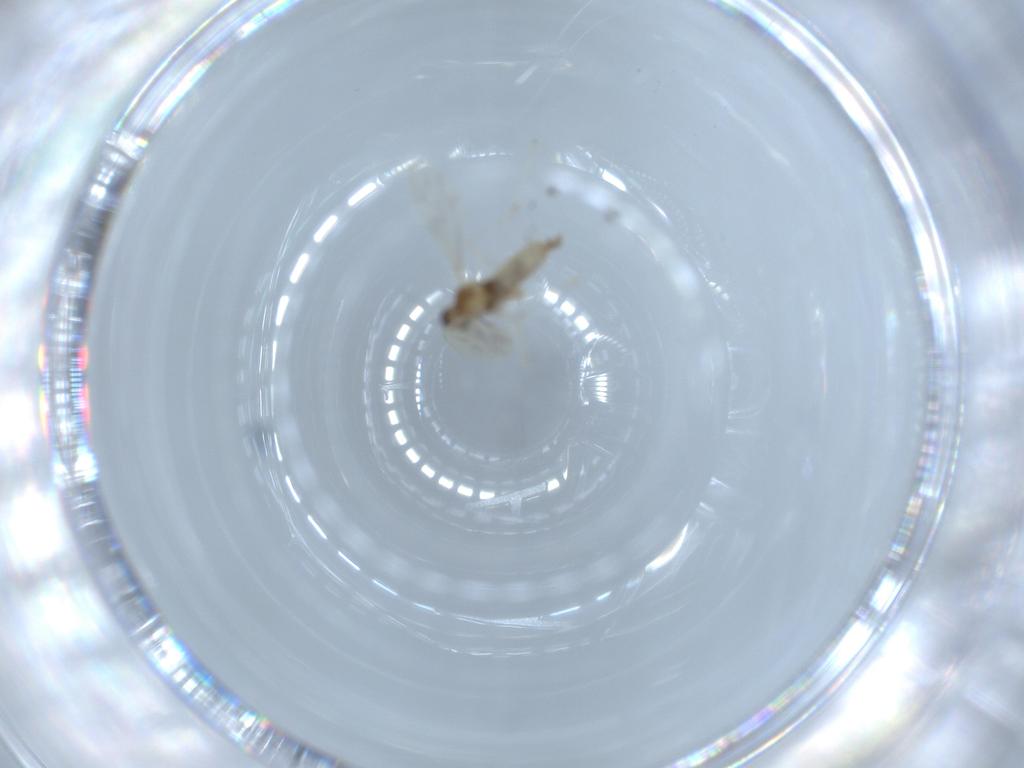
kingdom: Animalia
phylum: Arthropoda
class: Insecta
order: Diptera
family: Cecidomyiidae
